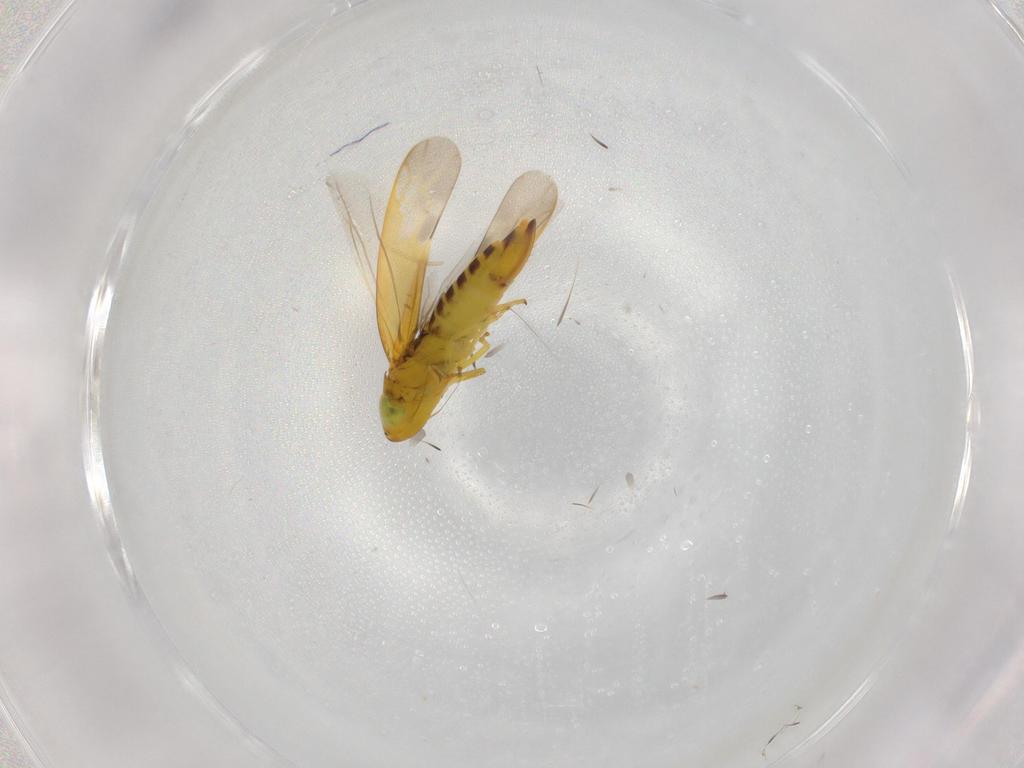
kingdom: Animalia
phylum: Arthropoda
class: Insecta
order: Hemiptera
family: Cicadellidae
